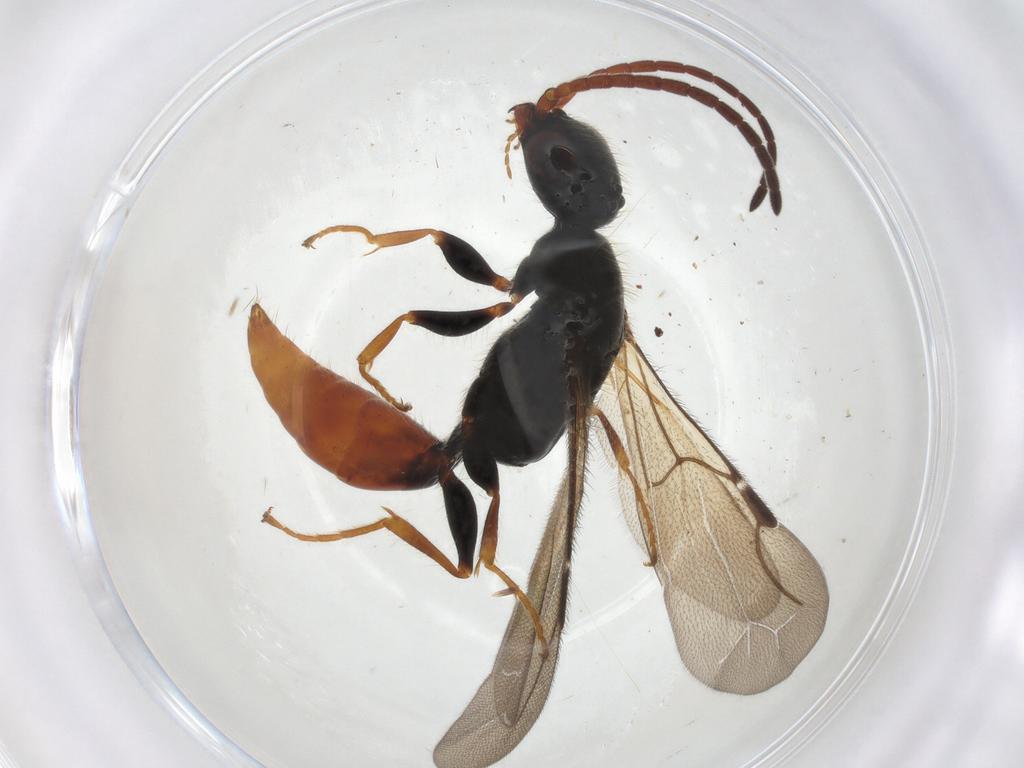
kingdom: Animalia
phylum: Arthropoda
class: Insecta
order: Hymenoptera
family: Bethylidae
